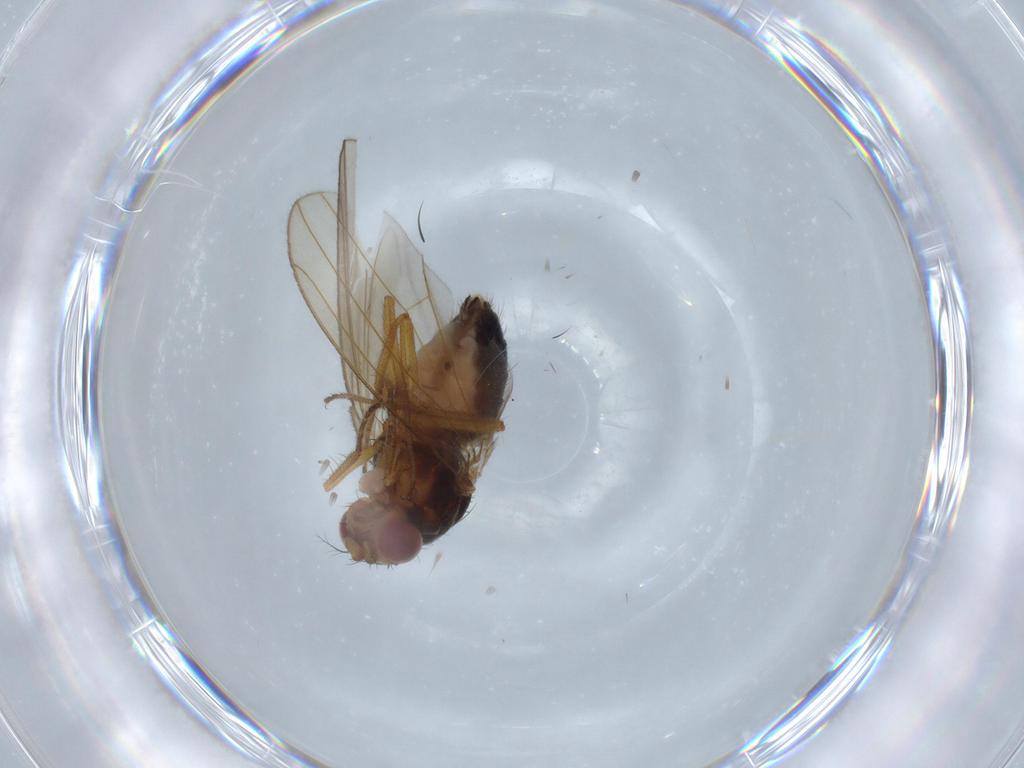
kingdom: Animalia
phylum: Arthropoda
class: Insecta
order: Diptera
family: Drosophilidae
